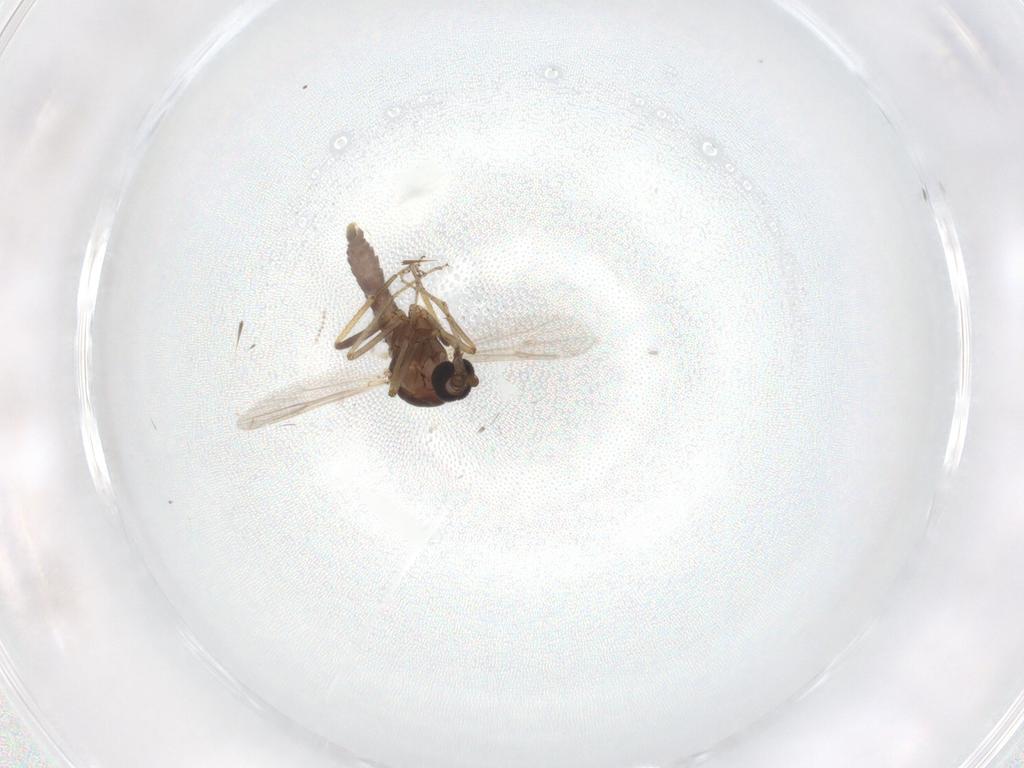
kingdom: Animalia
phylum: Arthropoda
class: Insecta
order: Diptera
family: Ceratopogonidae
